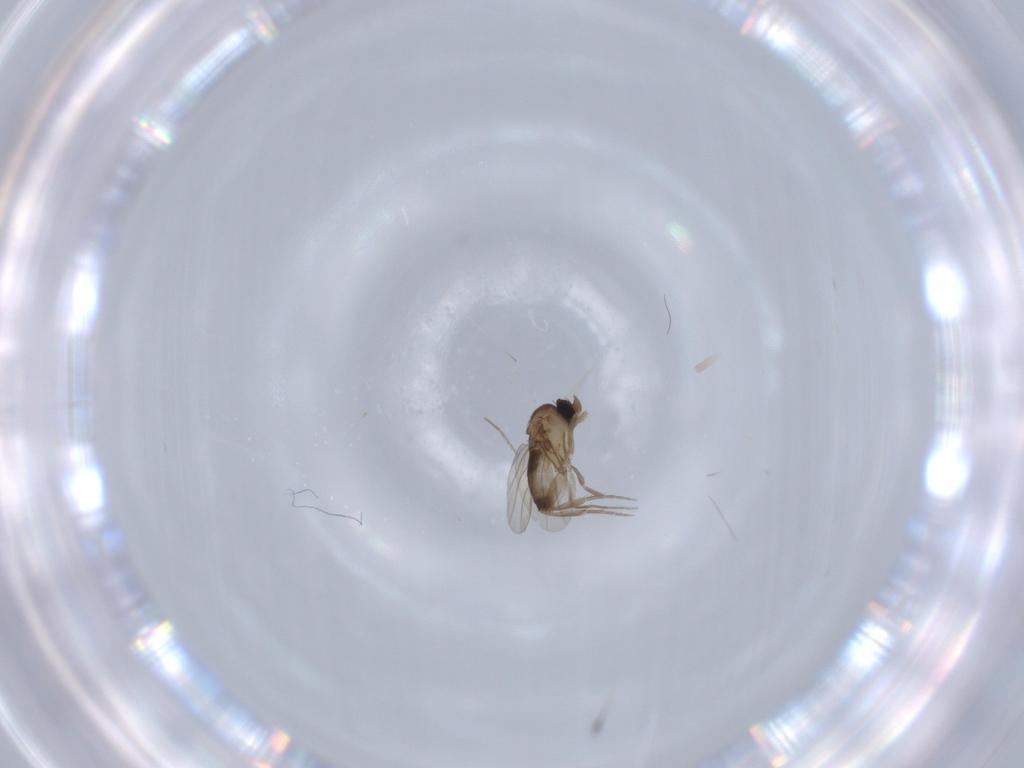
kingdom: Animalia
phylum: Arthropoda
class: Insecta
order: Diptera
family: Phoridae
